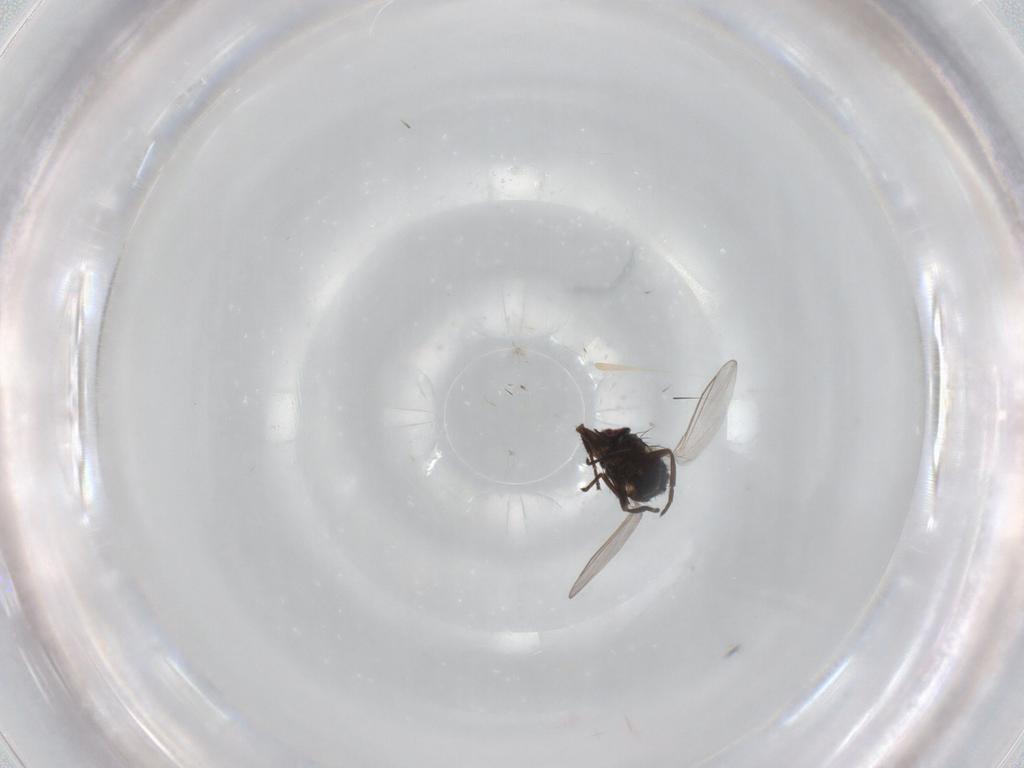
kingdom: Animalia
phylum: Arthropoda
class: Insecta
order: Diptera
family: Agromyzidae
